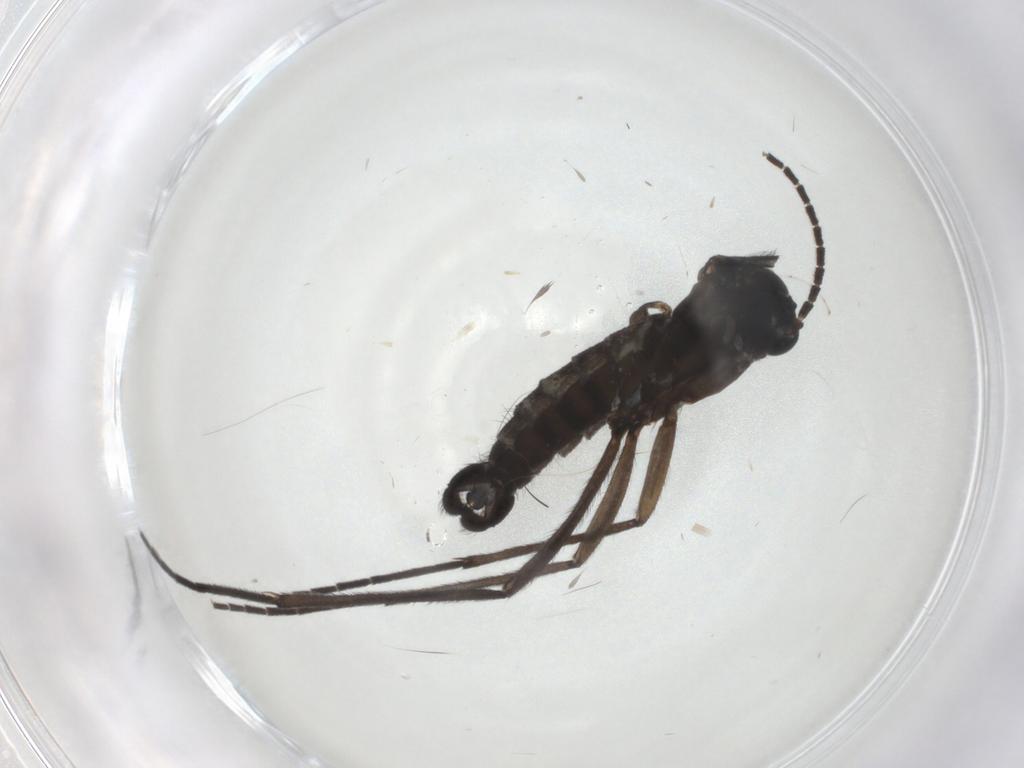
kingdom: Animalia
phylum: Arthropoda
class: Insecta
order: Diptera
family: Sciaridae
